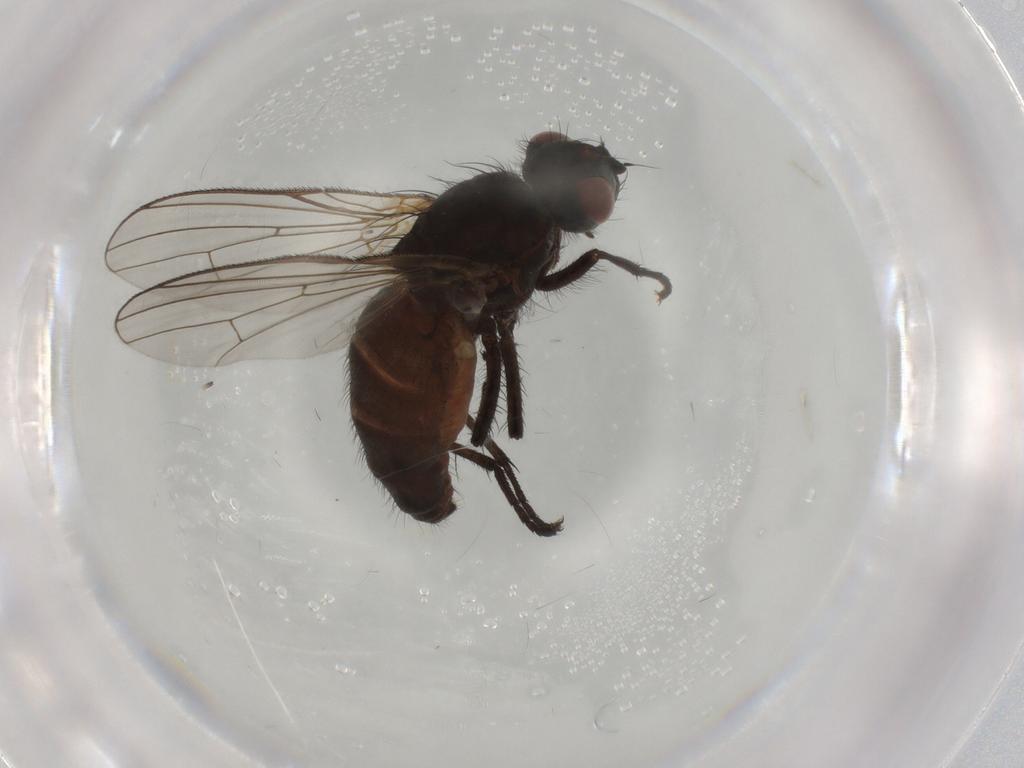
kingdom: Animalia
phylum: Arthropoda
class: Insecta
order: Diptera
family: Anthomyiidae
